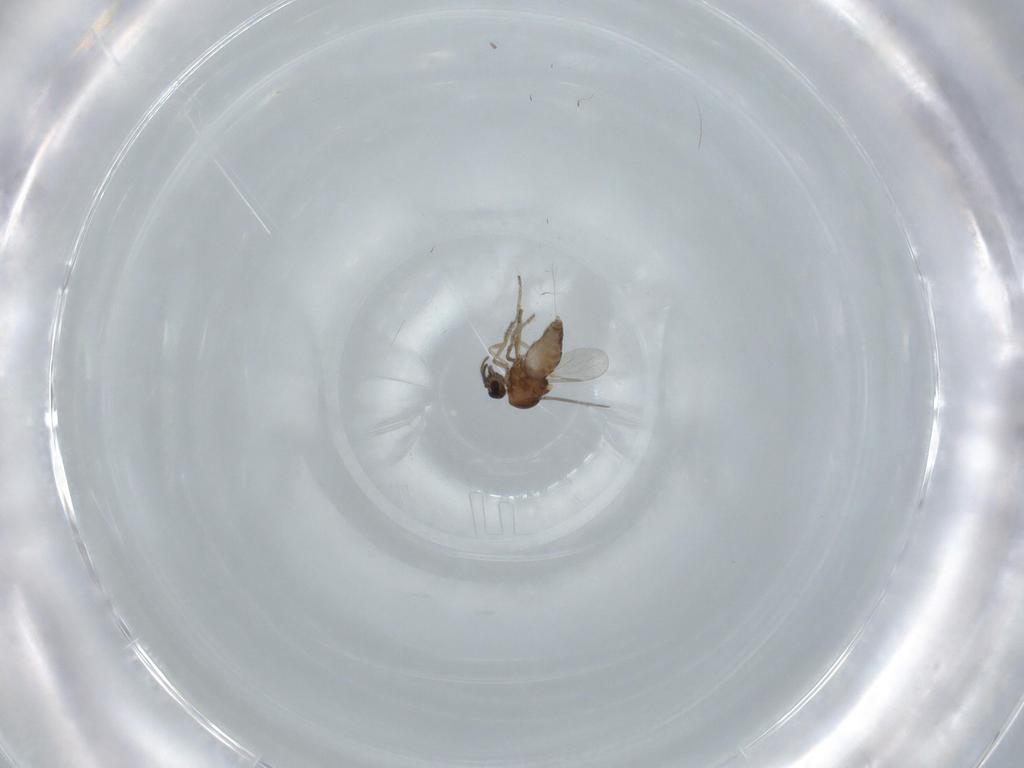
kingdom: Animalia
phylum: Arthropoda
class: Insecta
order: Diptera
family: Ceratopogonidae
